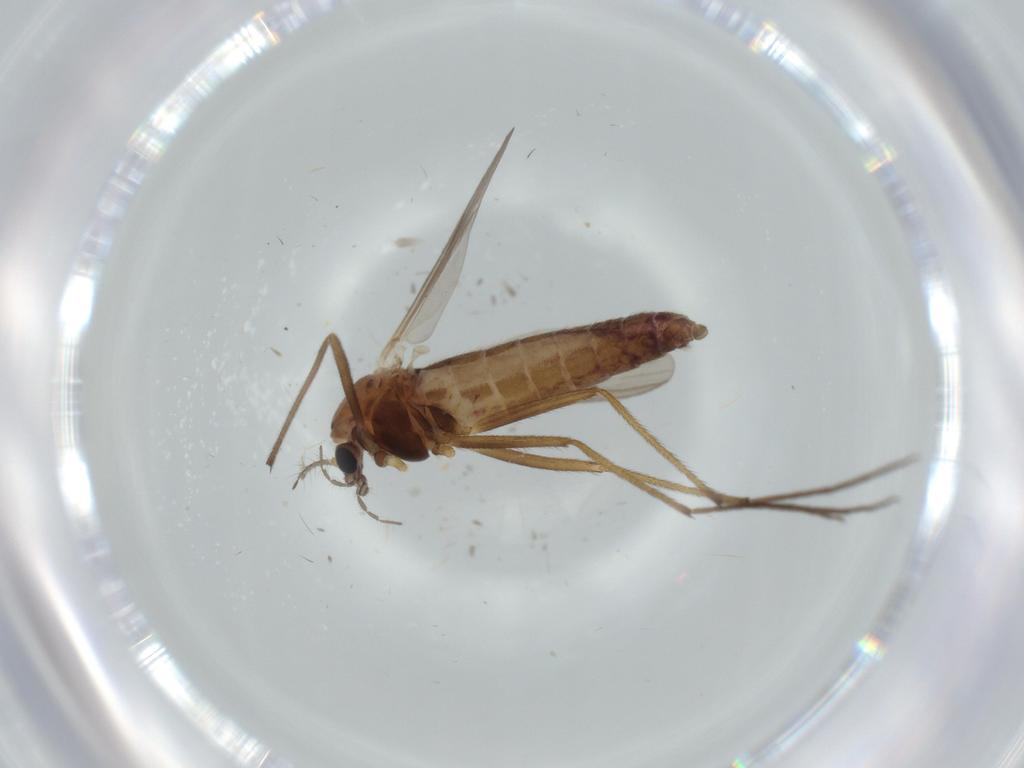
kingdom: Animalia
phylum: Arthropoda
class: Insecta
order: Diptera
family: Chironomidae
